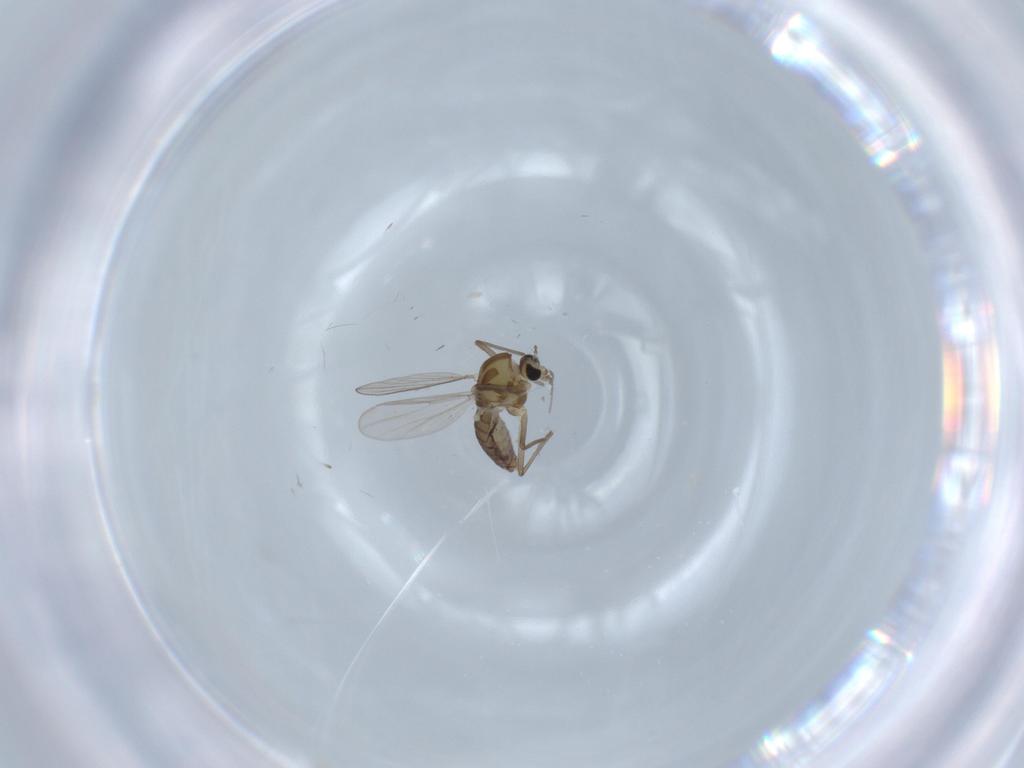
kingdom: Animalia
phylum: Arthropoda
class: Insecta
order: Diptera
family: Chironomidae
